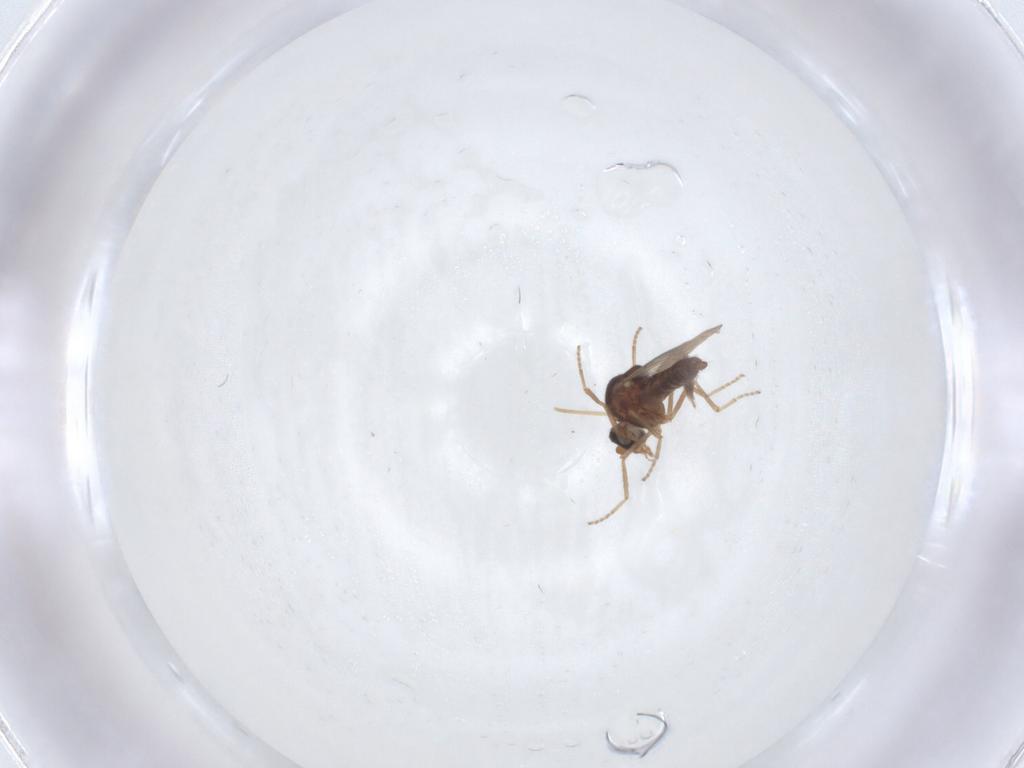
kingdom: Animalia
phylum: Arthropoda
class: Insecta
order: Diptera
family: Ceratopogonidae
